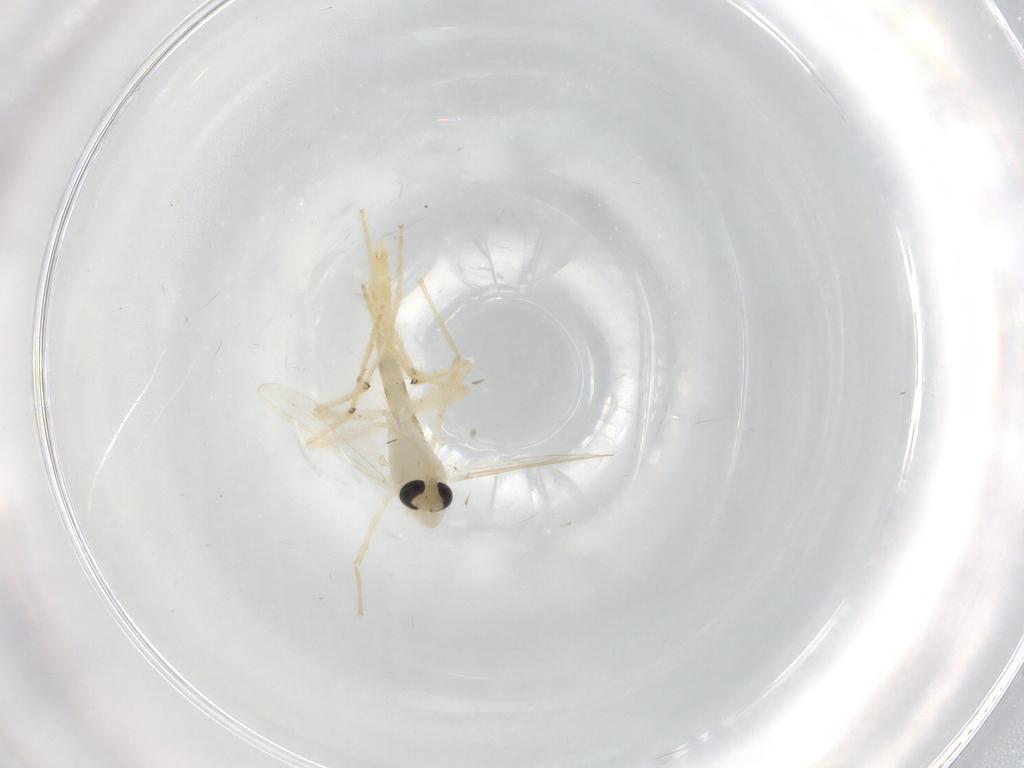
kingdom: Animalia
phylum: Arthropoda
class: Insecta
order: Diptera
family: Chironomidae
